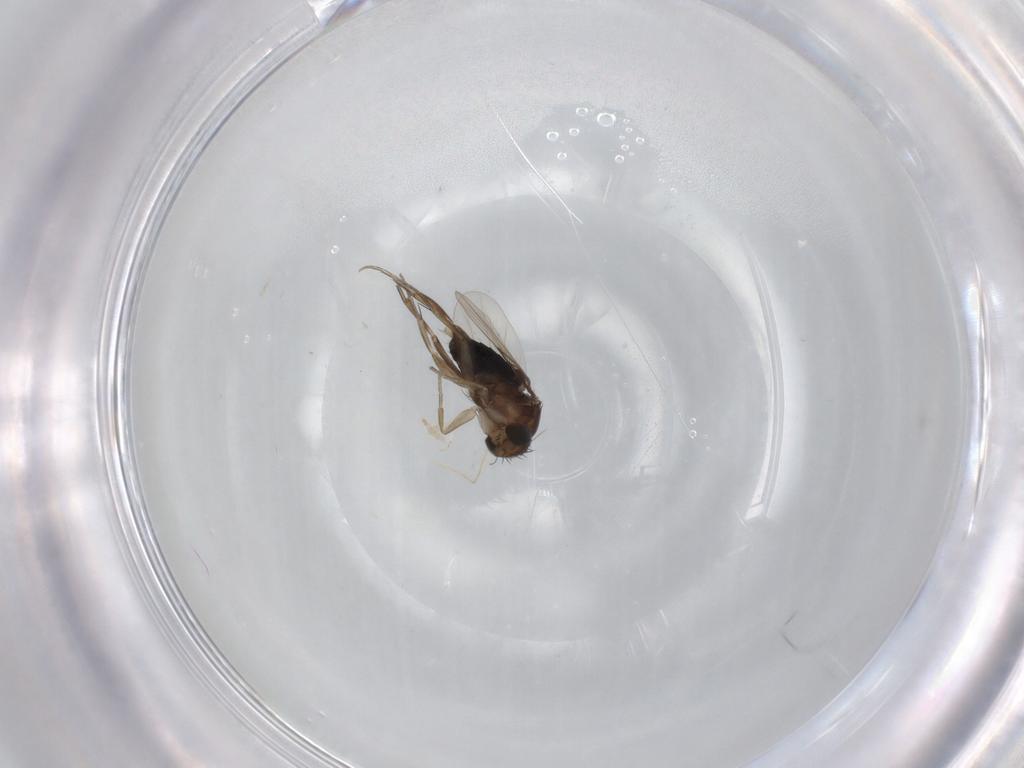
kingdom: Animalia
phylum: Arthropoda
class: Insecta
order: Diptera
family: Phoridae
